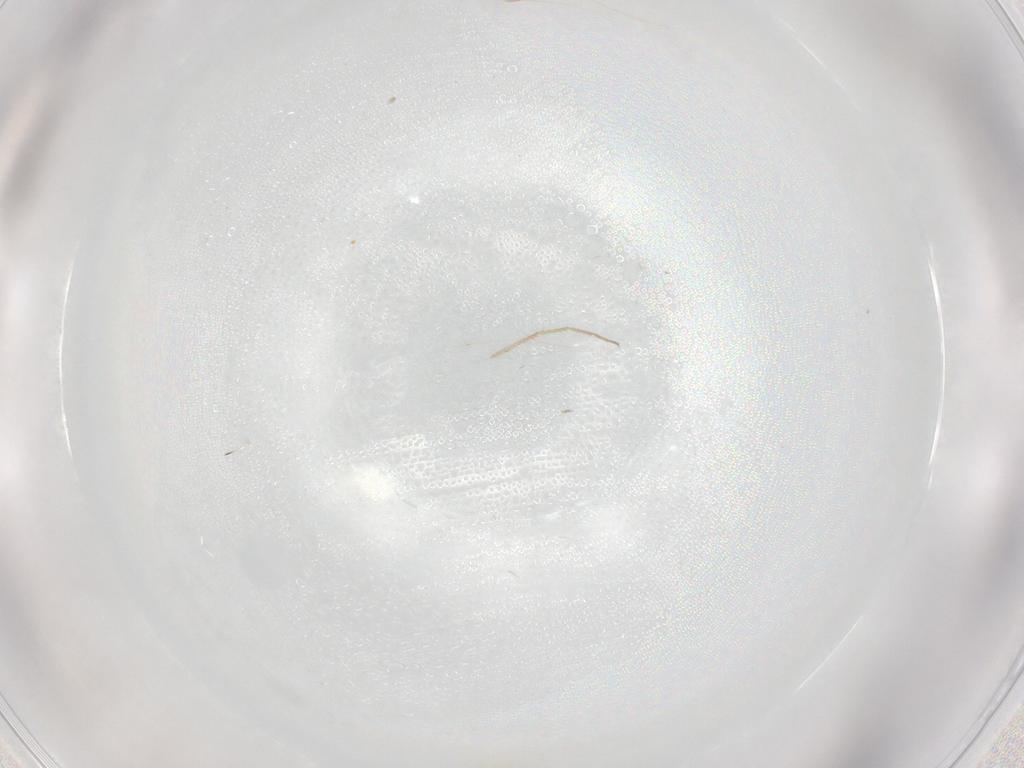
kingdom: Animalia
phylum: Arthropoda
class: Insecta
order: Diptera
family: Cecidomyiidae
